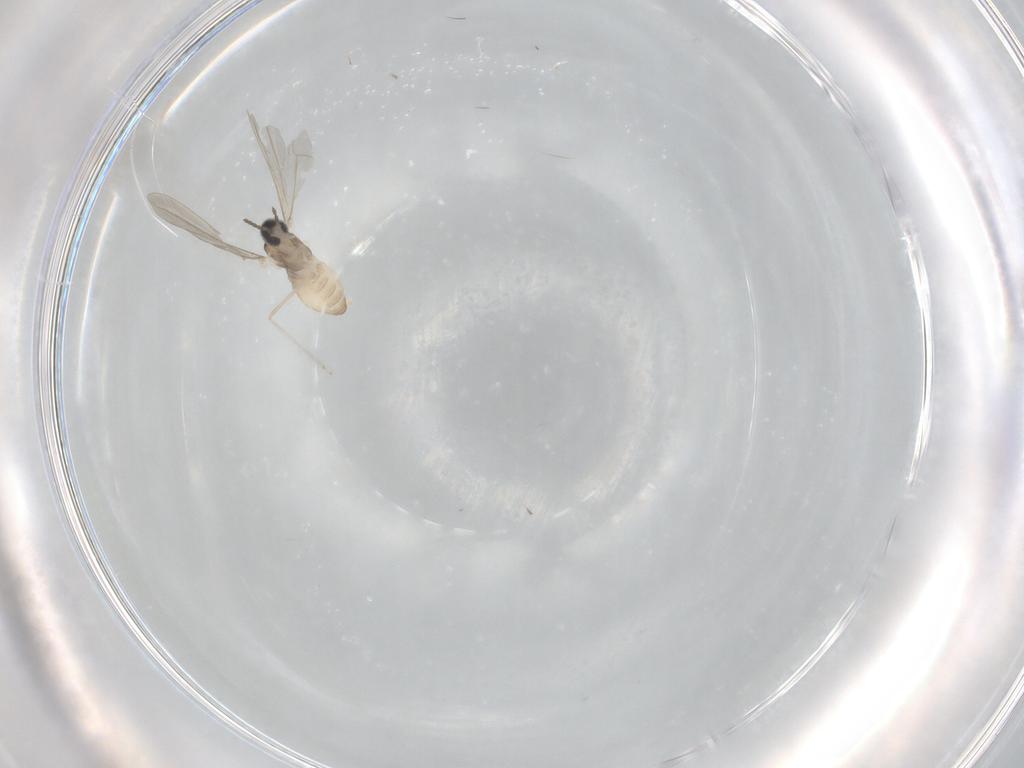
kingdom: Animalia
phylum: Arthropoda
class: Insecta
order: Diptera
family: Cecidomyiidae
